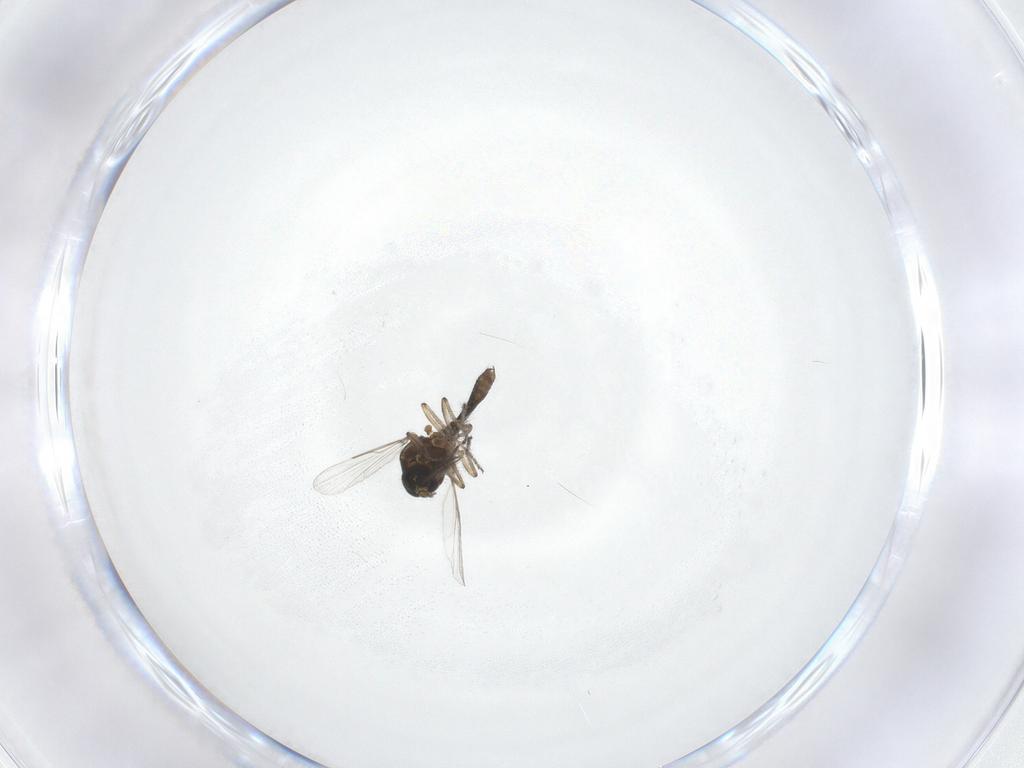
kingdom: Animalia
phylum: Arthropoda
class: Insecta
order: Diptera
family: Ceratopogonidae
